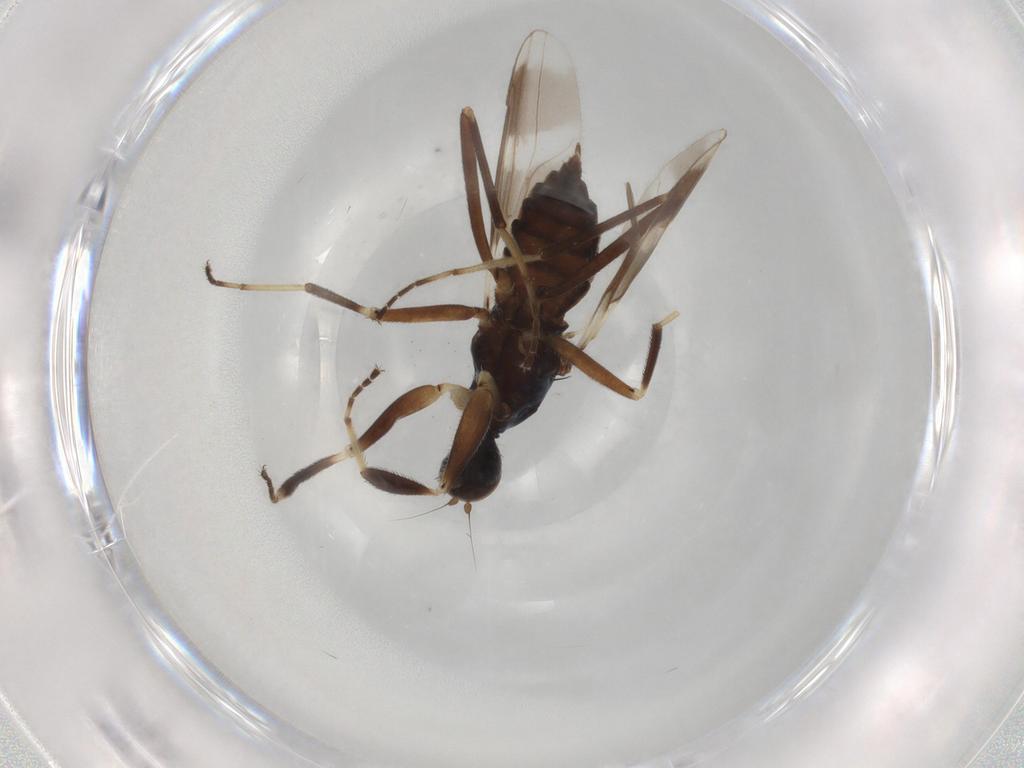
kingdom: Animalia
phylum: Arthropoda
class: Insecta
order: Diptera
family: Hybotidae
